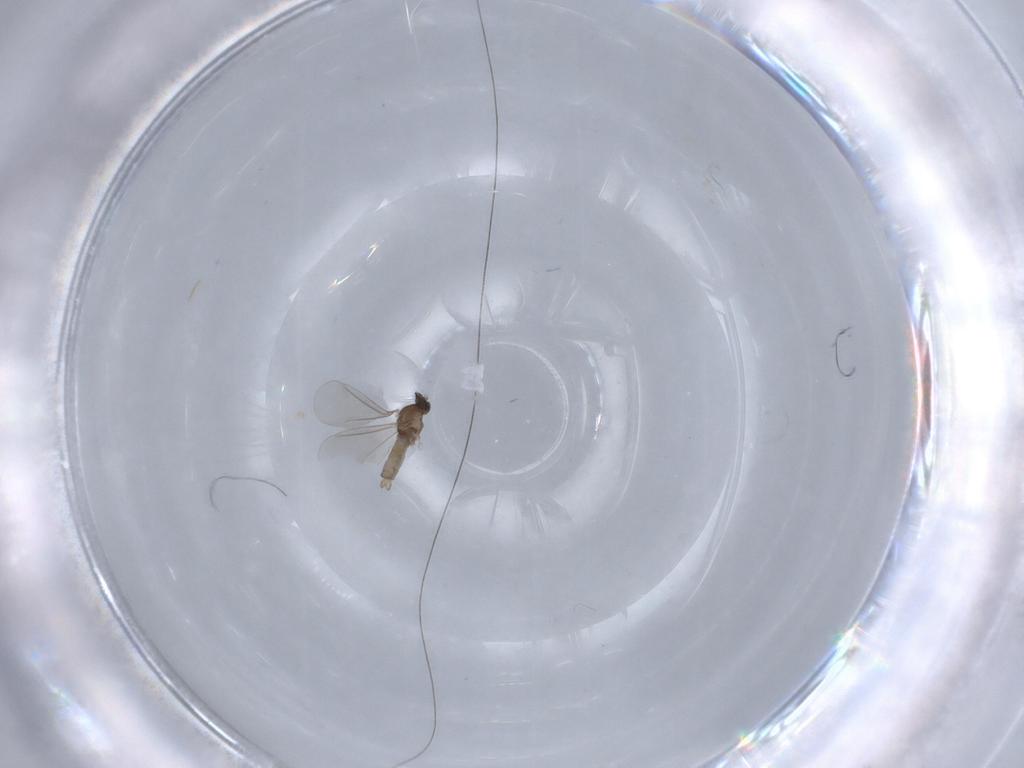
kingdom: Animalia
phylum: Arthropoda
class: Insecta
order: Diptera
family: Cecidomyiidae
